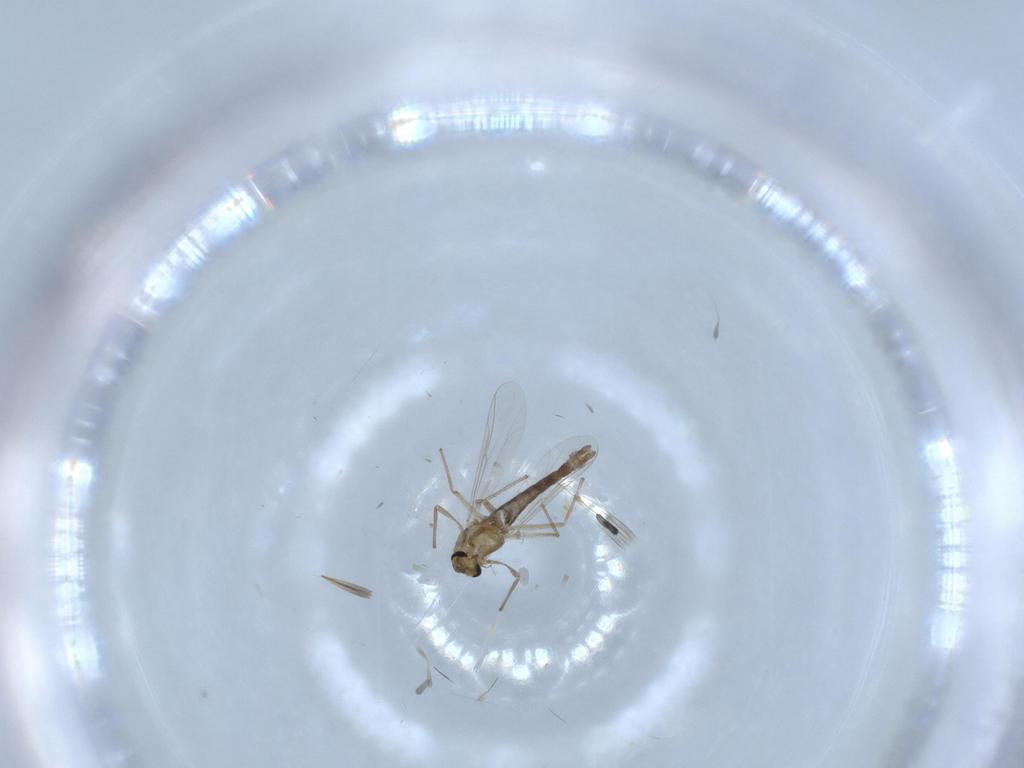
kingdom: Animalia
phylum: Arthropoda
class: Insecta
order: Diptera
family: Chironomidae
